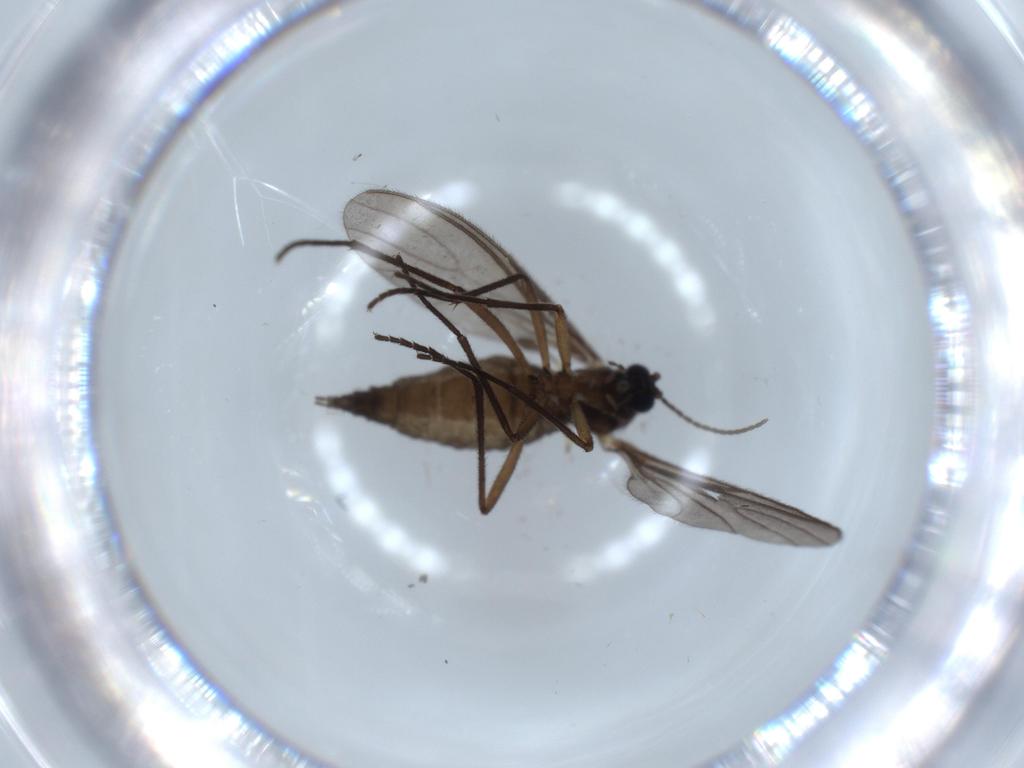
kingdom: Animalia
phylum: Arthropoda
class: Insecta
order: Diptera
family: Sciaridae
